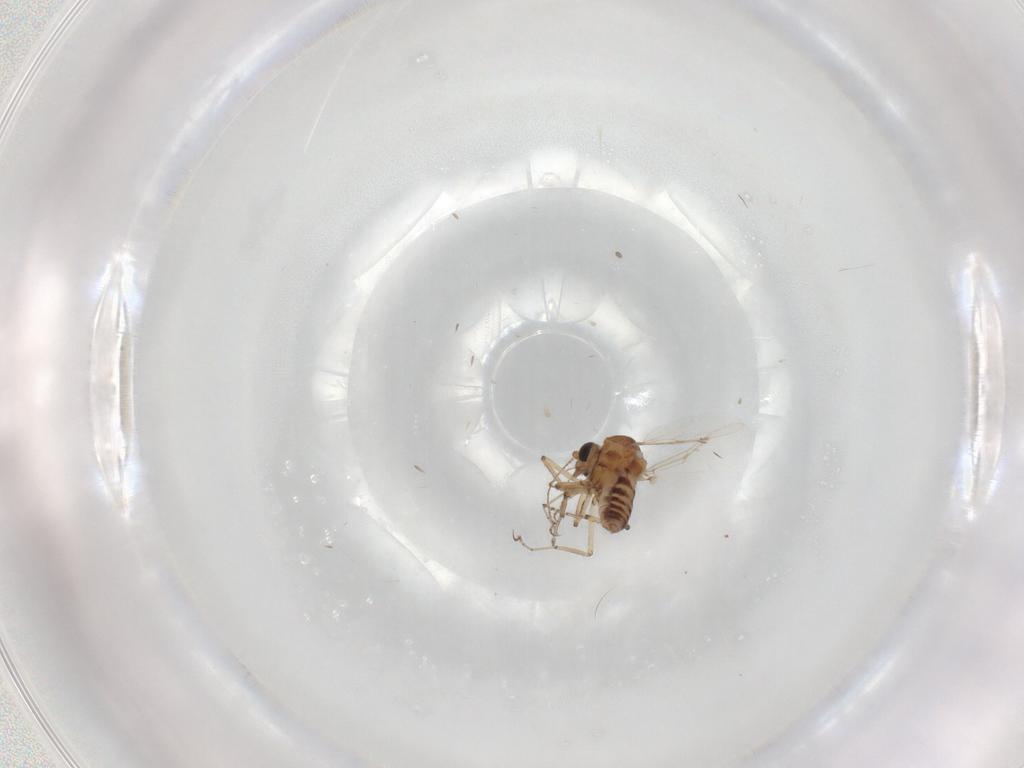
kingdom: Animalia
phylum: Arthropoda
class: Insecta
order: Diptera
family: Ceratopogonidae
